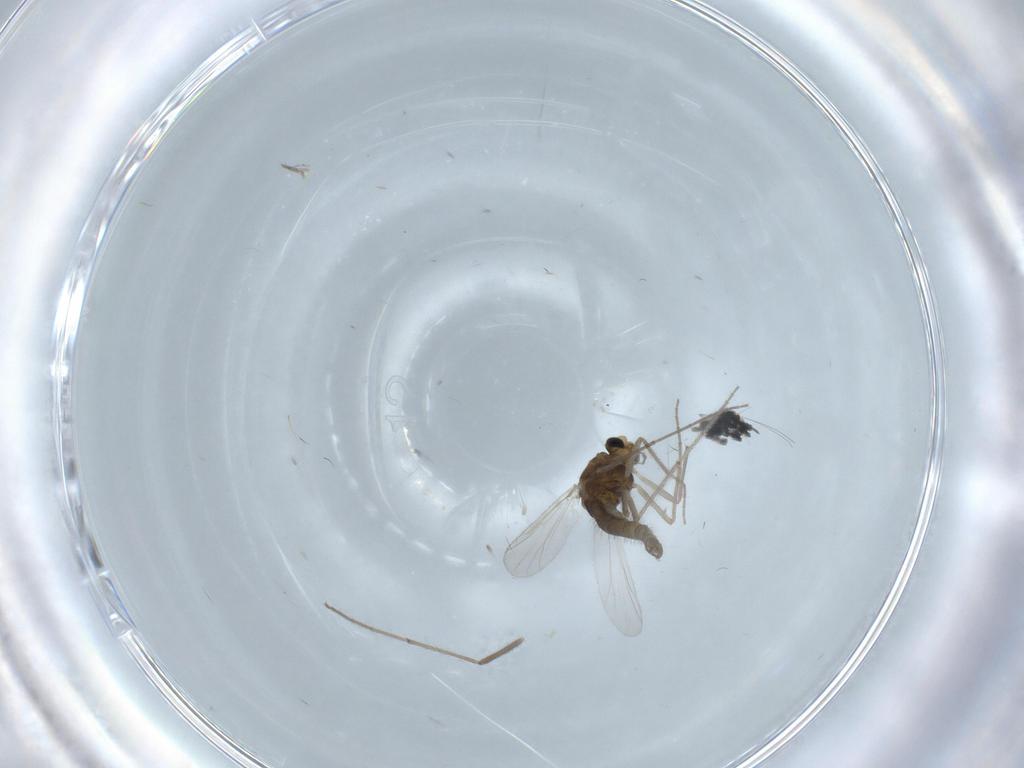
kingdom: Animalia
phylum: Arthropoda
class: Insecta
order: Diptera
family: Chironomidae
